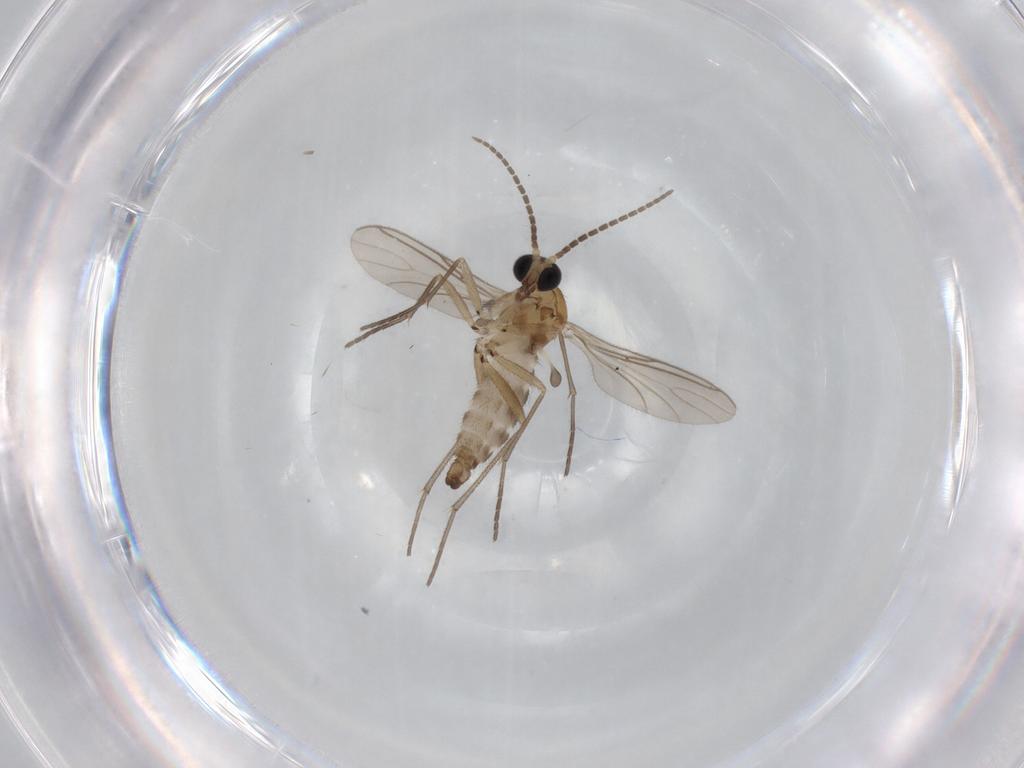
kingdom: Animalia
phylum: Arthropoda
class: Insecta
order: Diptera
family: Sciaridae
